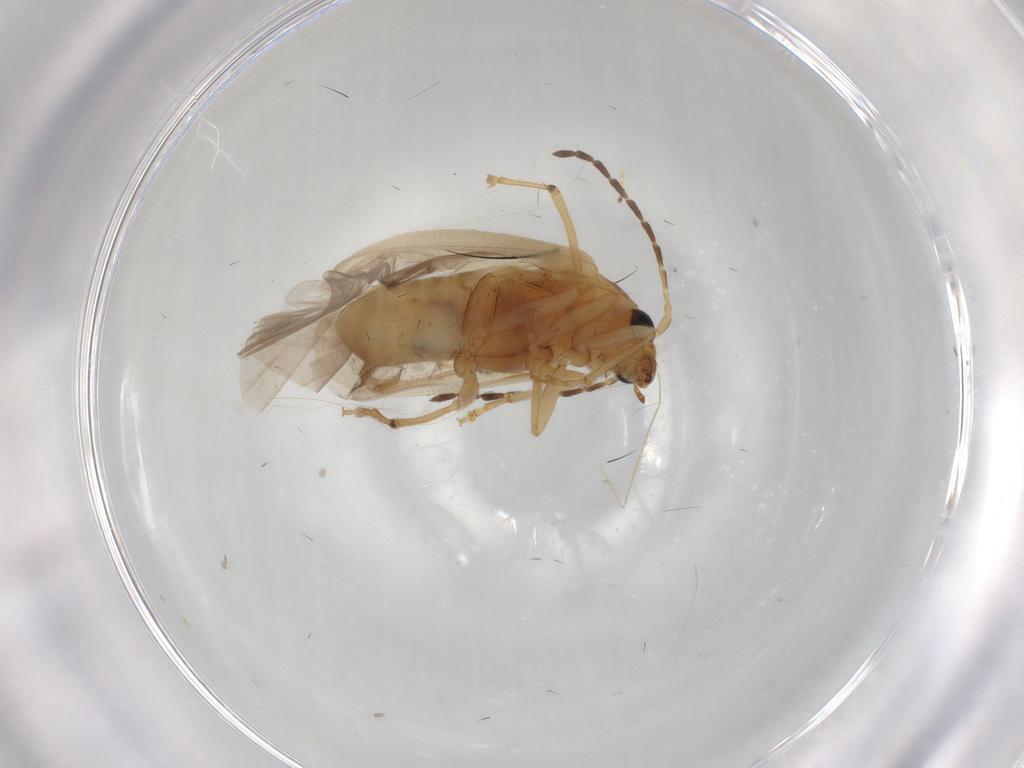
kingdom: Animalia
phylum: Arthropoda
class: Insecta
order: Coleoptera
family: Chrysomelidae
